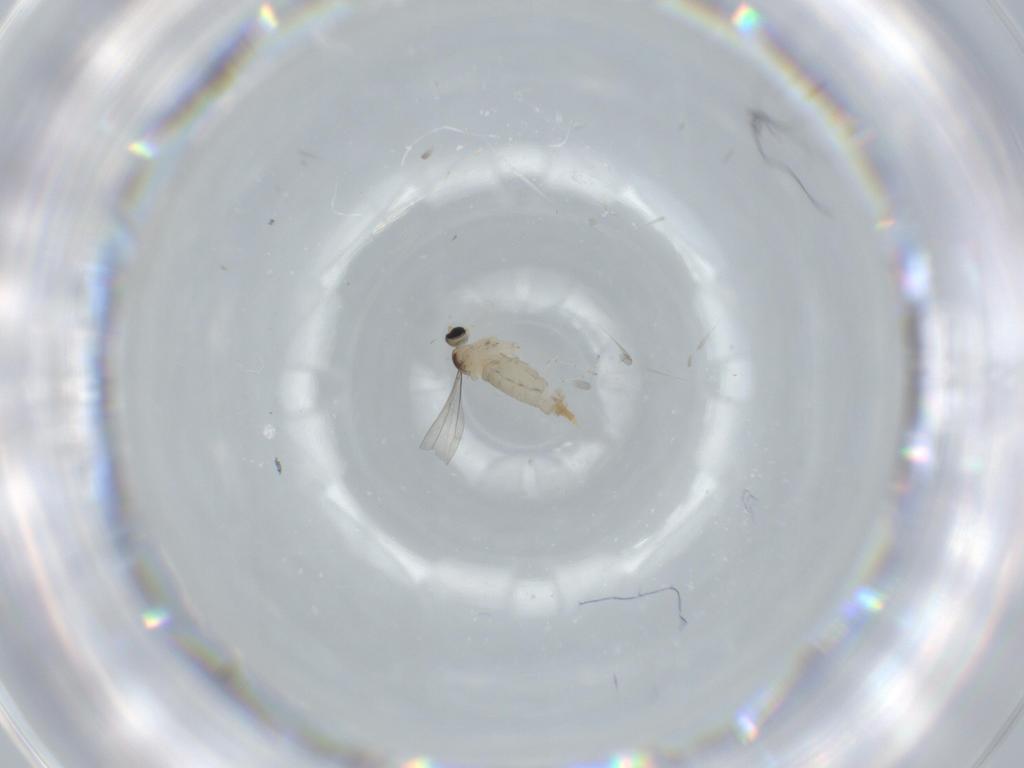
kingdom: Animalia
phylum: Arthropoda
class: Insecta
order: Diptera
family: Sciaridae
